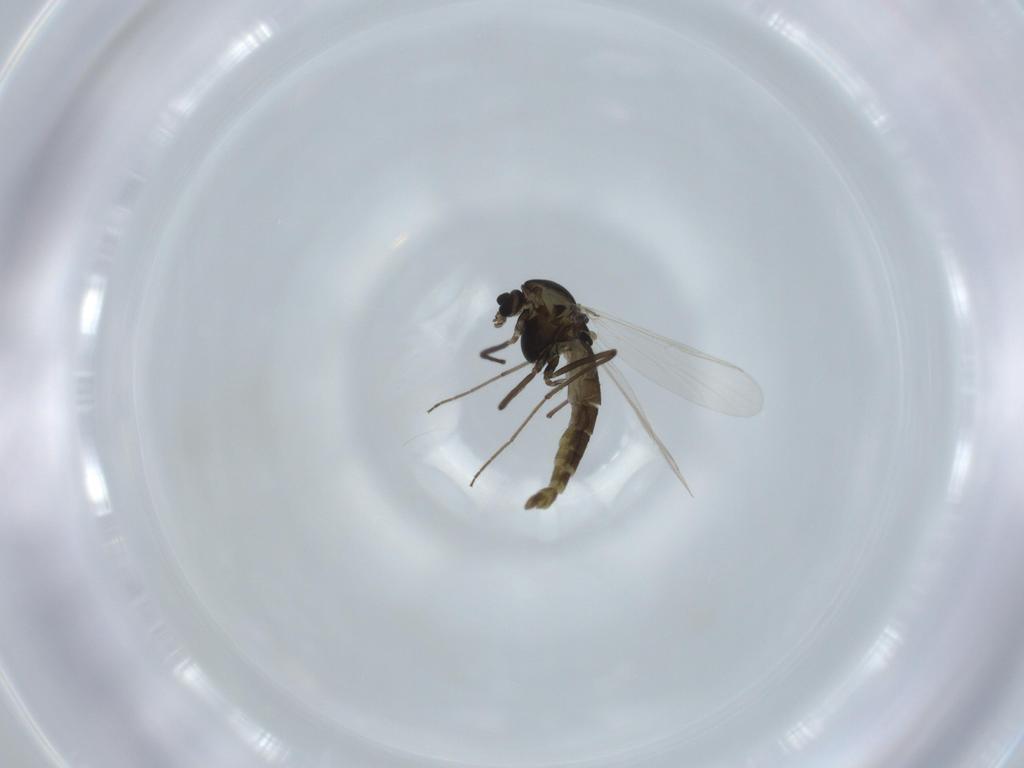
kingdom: Animalia
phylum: Arthropoda
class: Insecta
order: Diptera
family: Chironomidae
